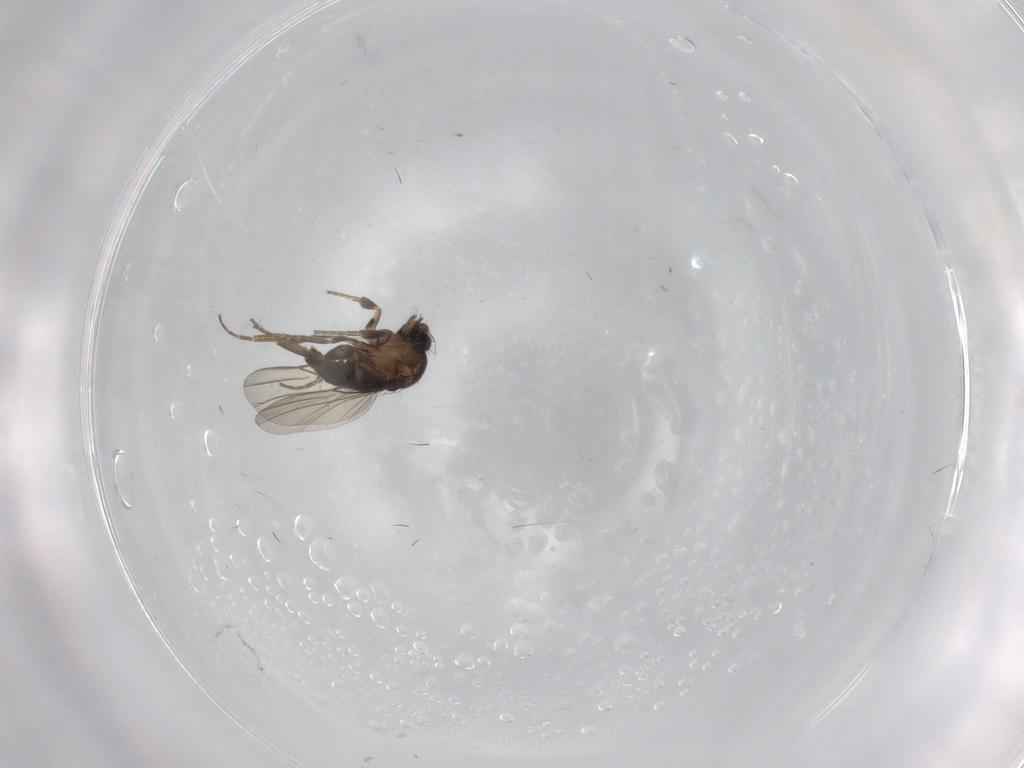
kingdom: Animalia
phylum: Arthropoda
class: Insecta
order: Diptera
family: Phoridae
